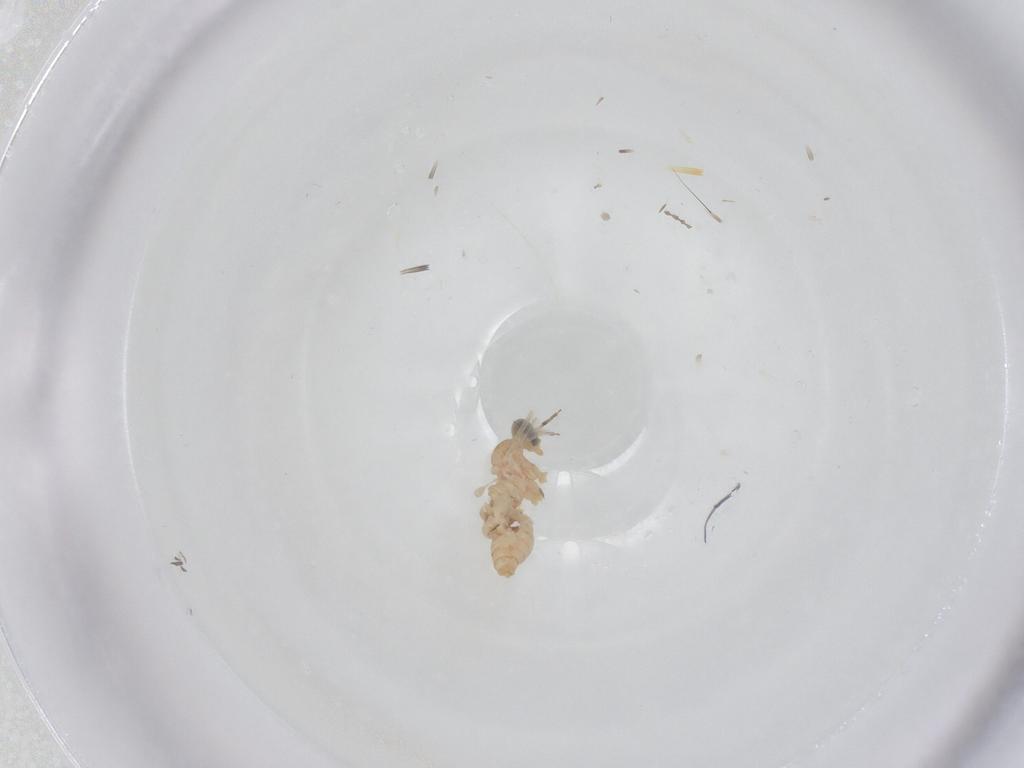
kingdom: Animalia
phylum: Arthropoda
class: Insecta
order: Diptera
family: Cecidomyiidae
